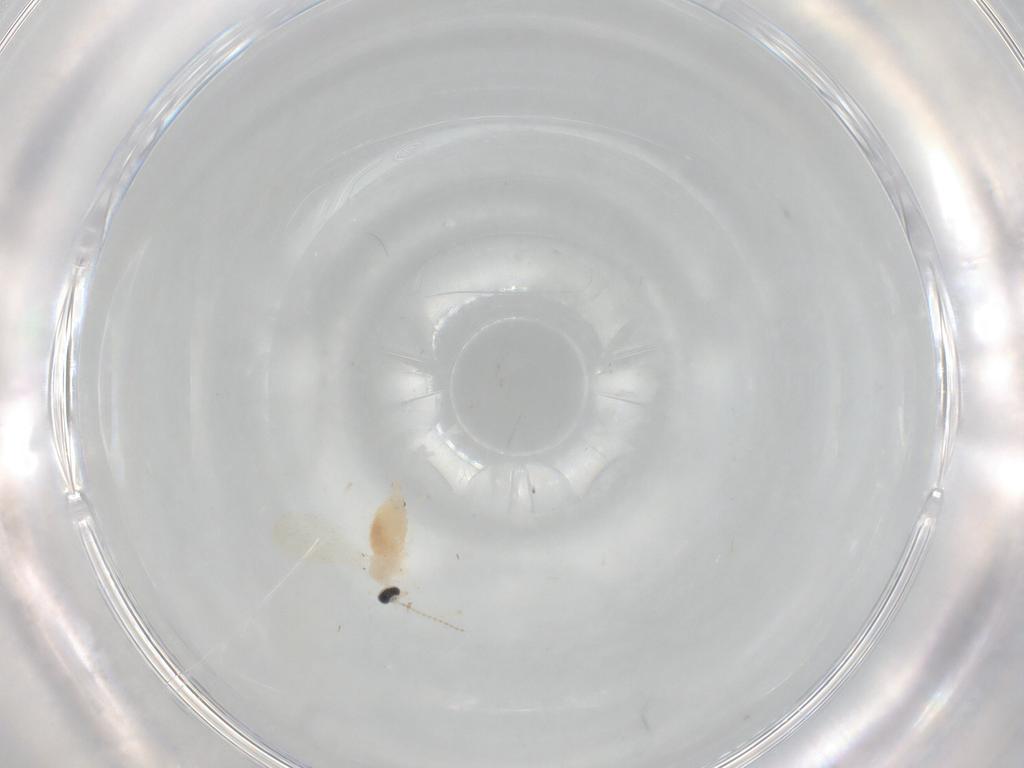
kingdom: Animalia
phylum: Arthropoda
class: Insecta
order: Diptera
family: Cecidomyiidae
